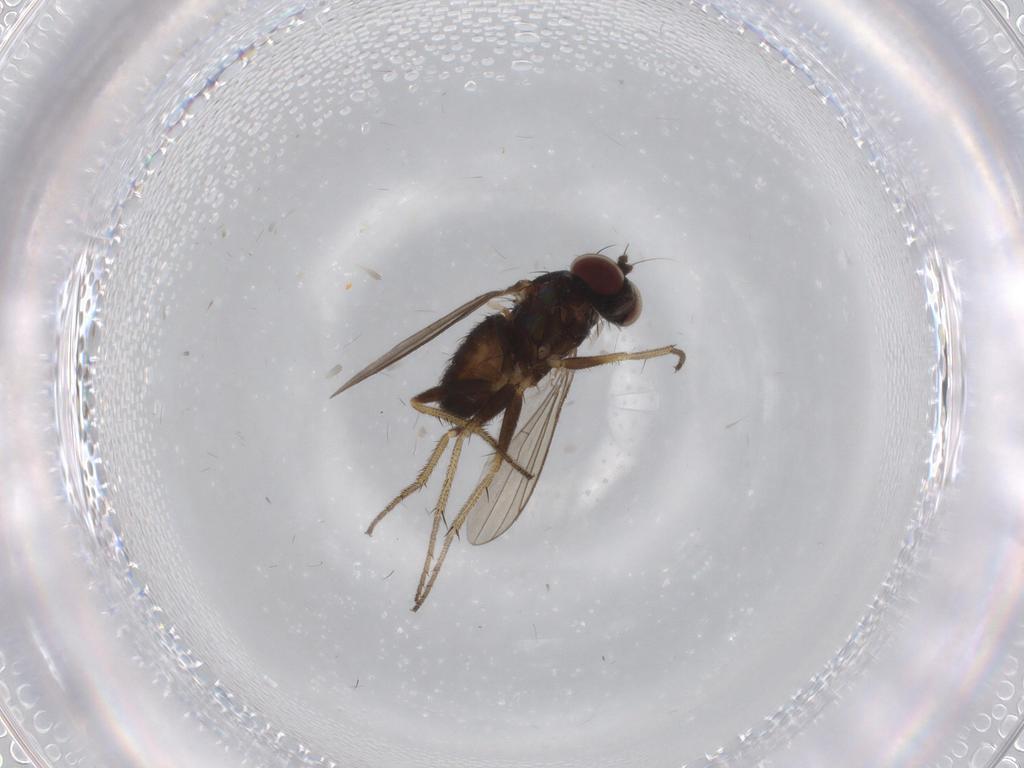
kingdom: Animalia
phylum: Arthropoda
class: Insecta
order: Diptera
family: Dolichopodidae
